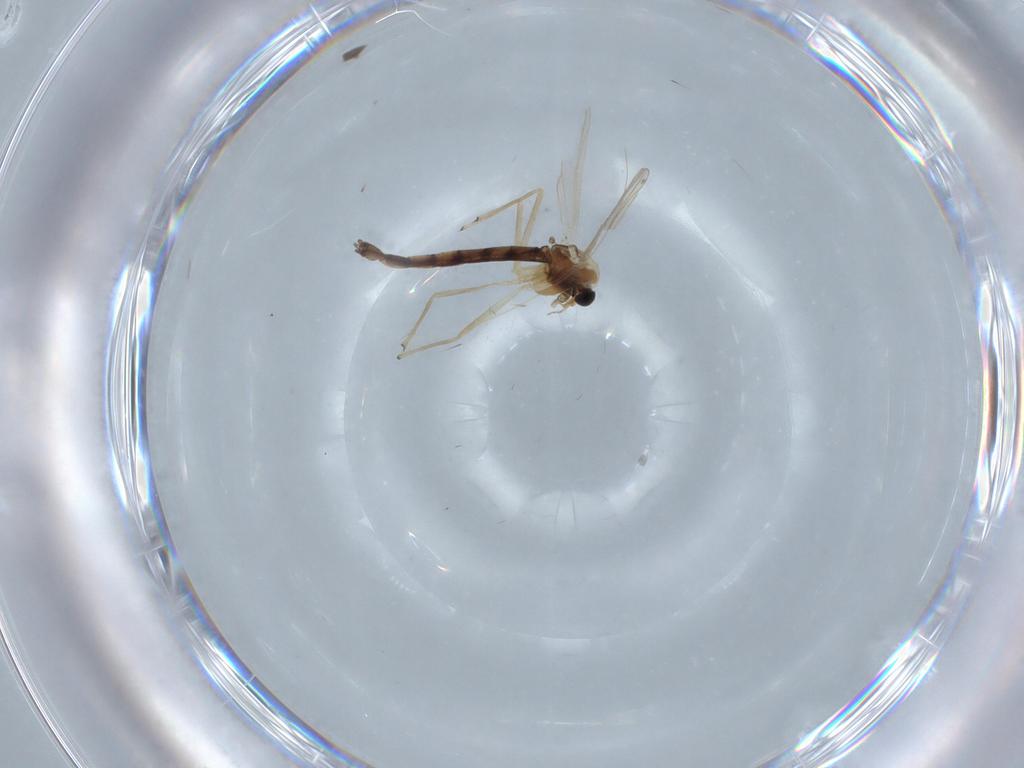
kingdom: Animalia
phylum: Arthropoda
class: Insecta
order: Diptera
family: Chironomidae
